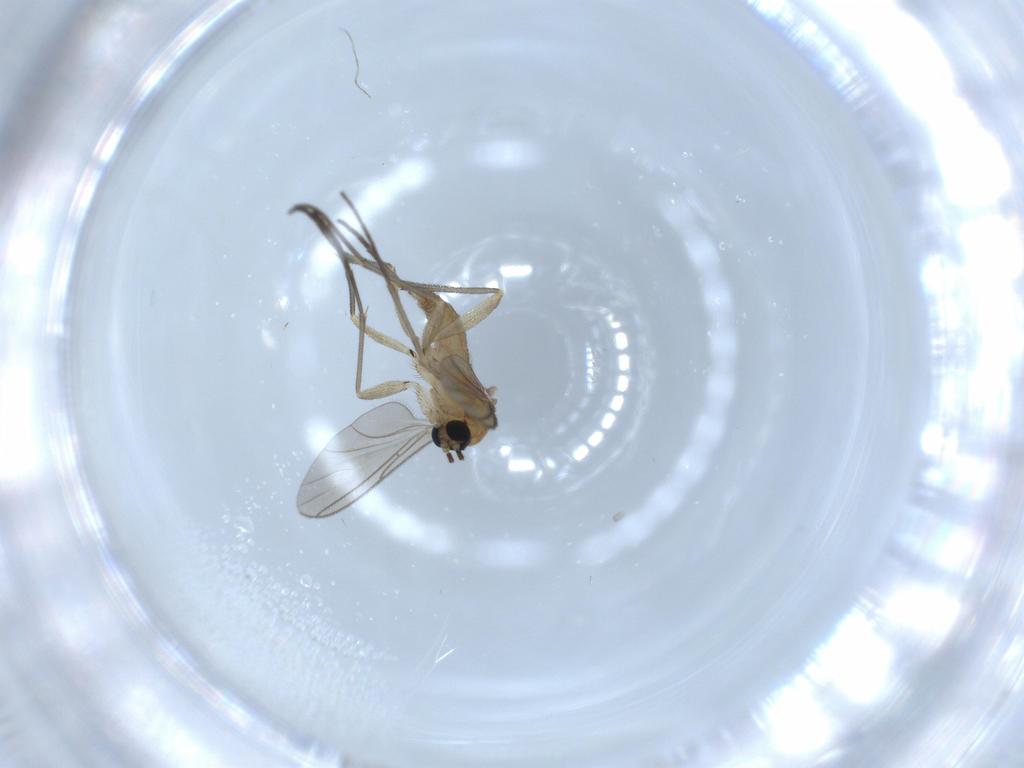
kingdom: Animalia
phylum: Arthropoda
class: Insecta
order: Diptera
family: Sciaridae
